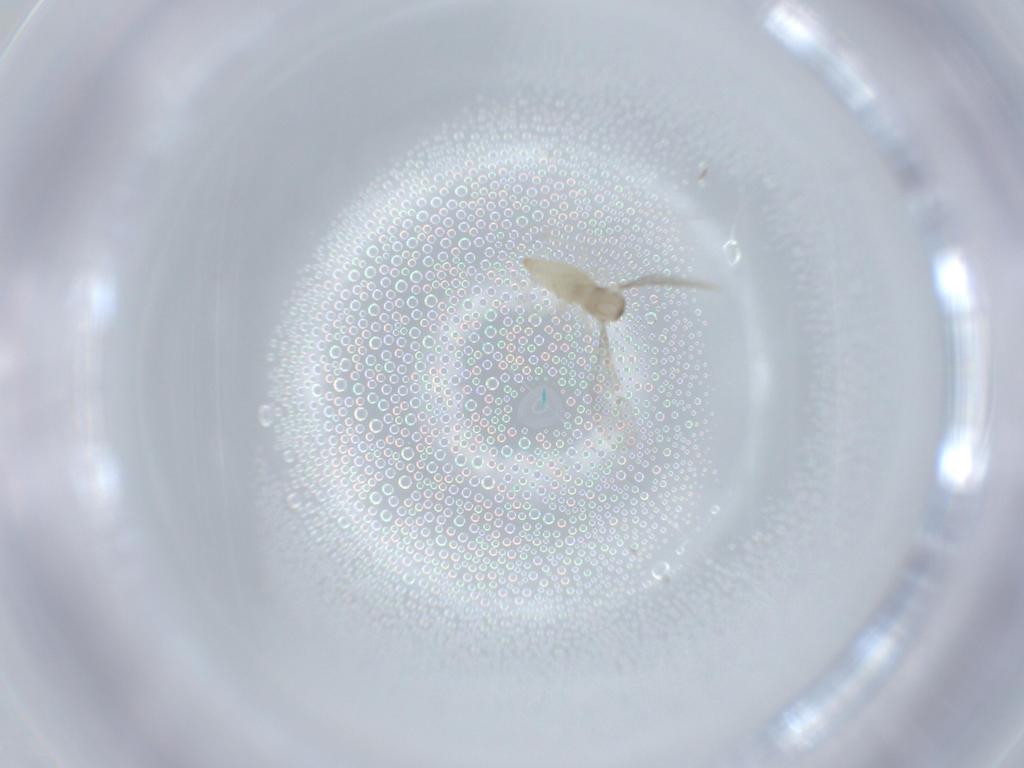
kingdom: Animalia
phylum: Arthropoda
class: Insecta
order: Diptera
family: Cecidomyiidae
